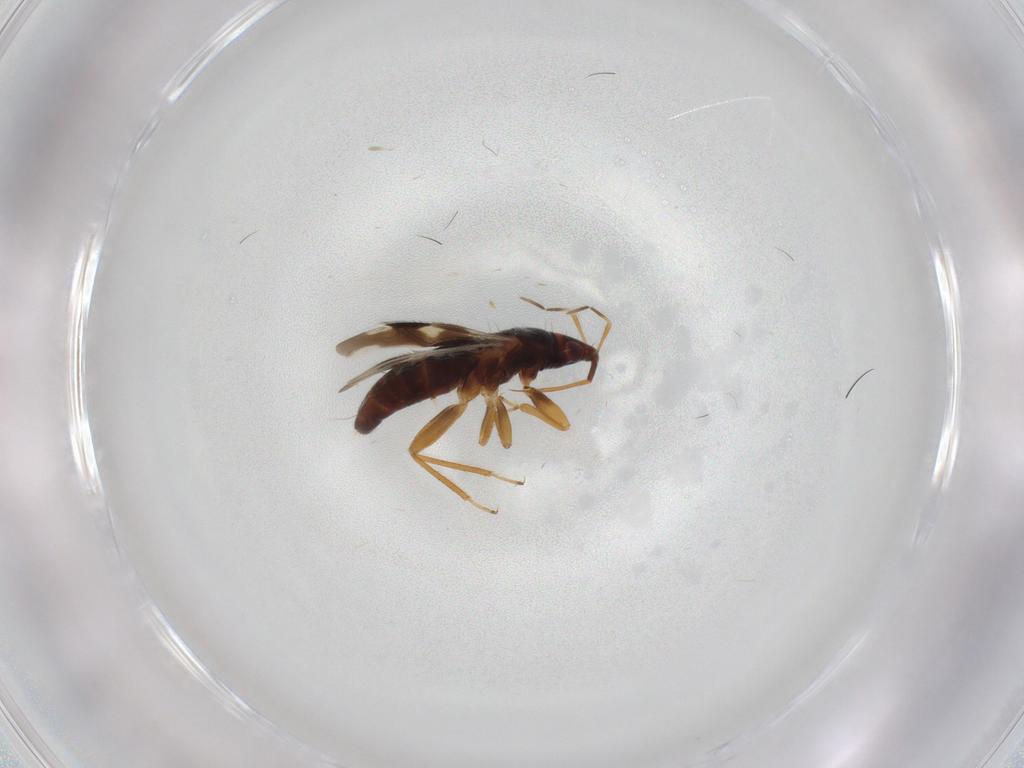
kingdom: Animalia
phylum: Arthropoda
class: Insecta
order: Hemiptera
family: Anthocoridae
